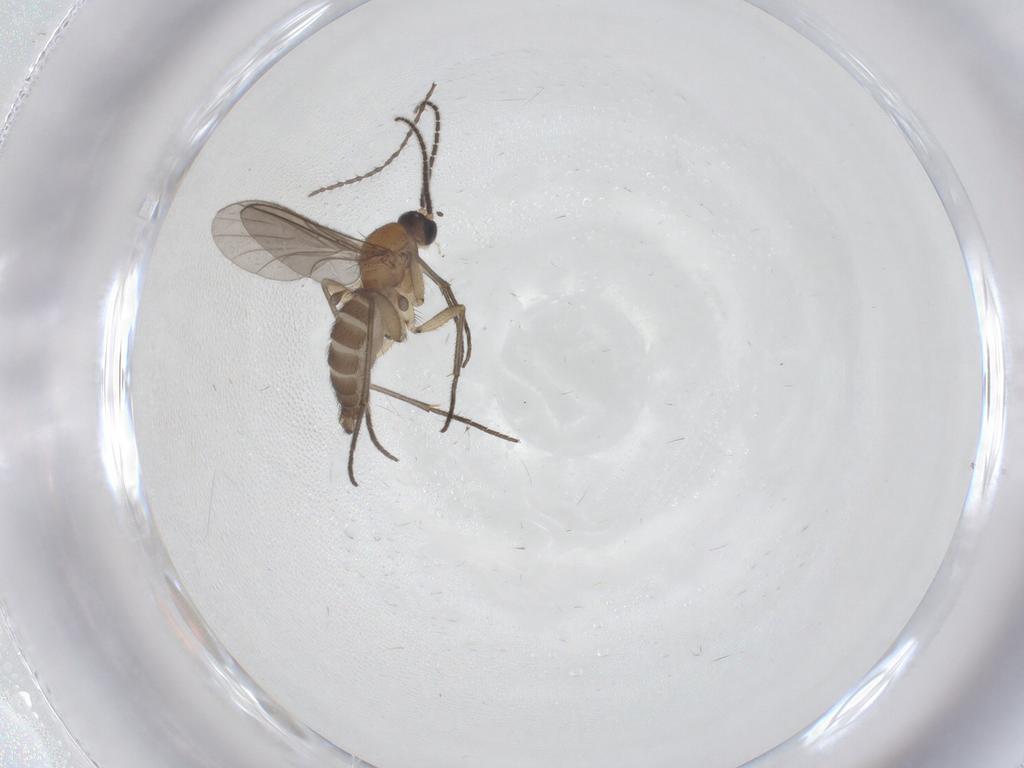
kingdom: Animalia
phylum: Arthropoda
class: Insecta
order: Diptera
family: Sciaridae
